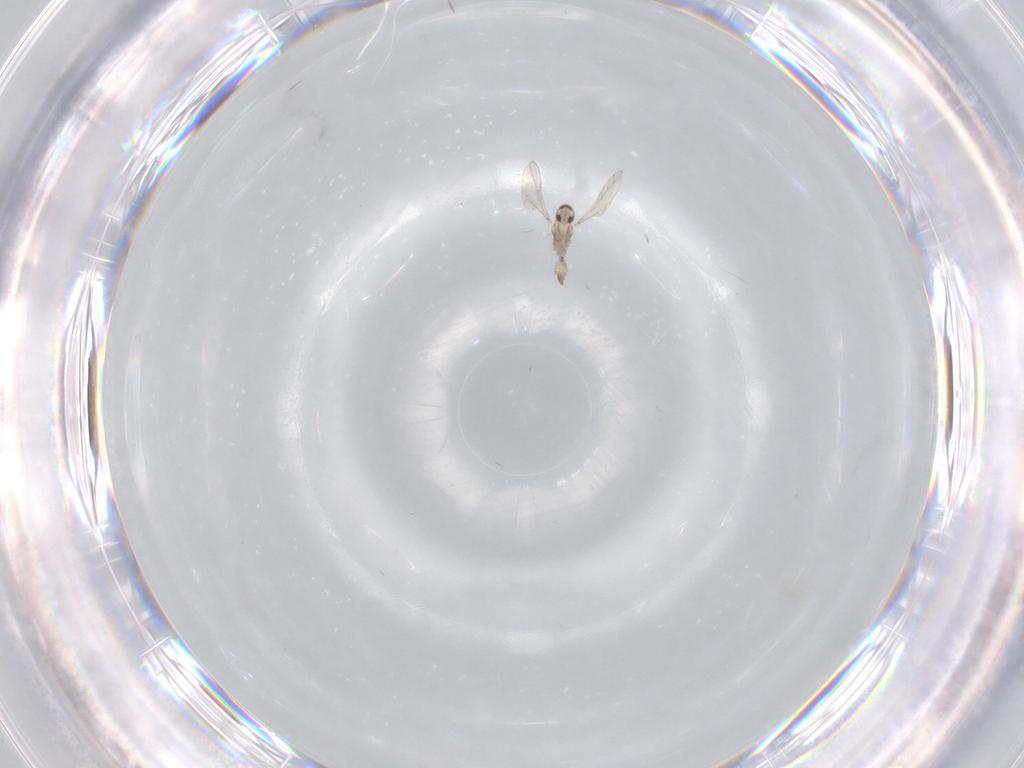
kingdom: Animalia
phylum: Arthropoda
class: Insecta
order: Diptera
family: Cecidomyiidae
